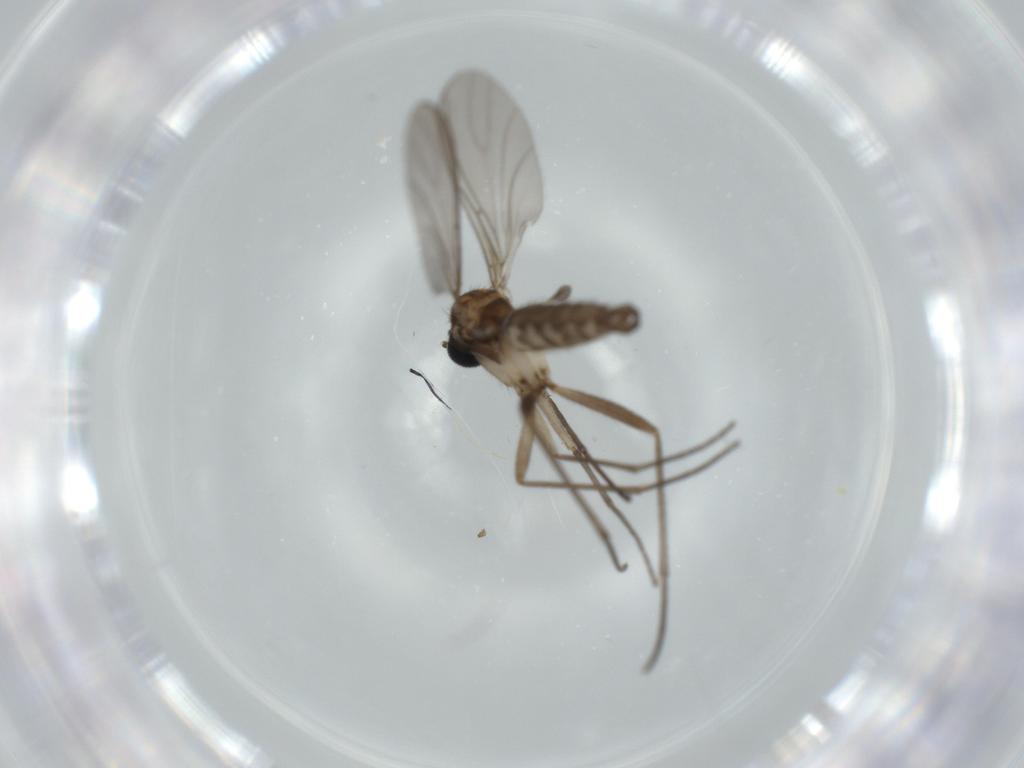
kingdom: Animalia
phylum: Arthropoda
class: Insecta
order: Diptera
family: Sciaridae
